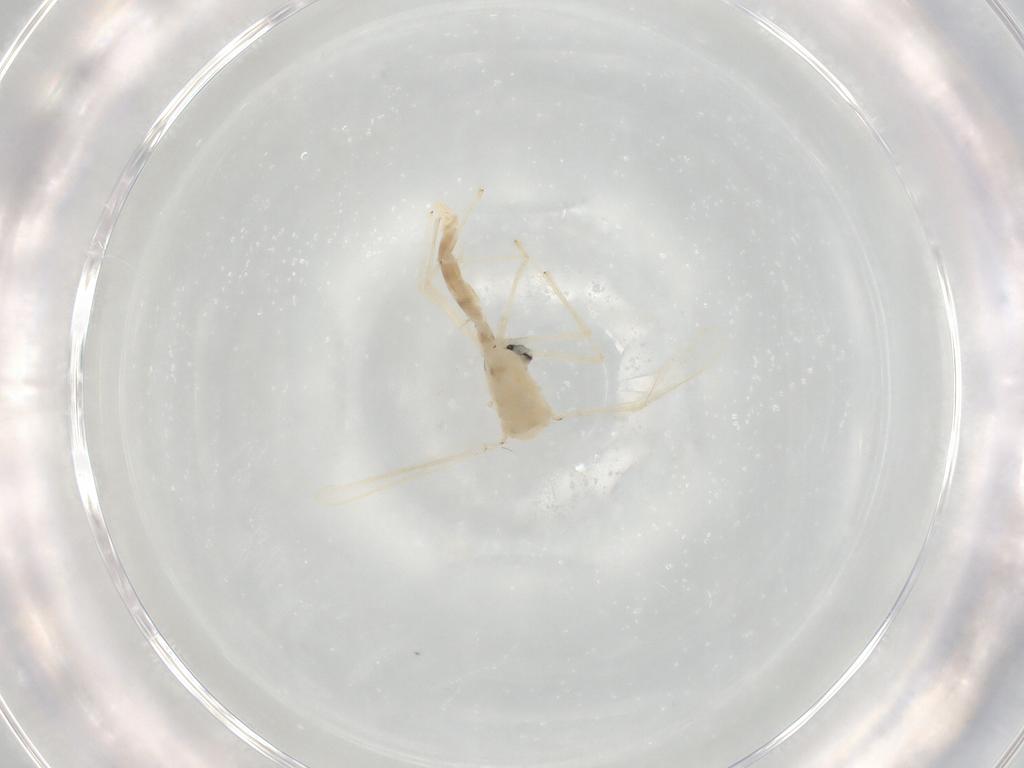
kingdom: Animalia
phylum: Arthropoda
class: Insecta
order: Diptera
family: Chironomidae
